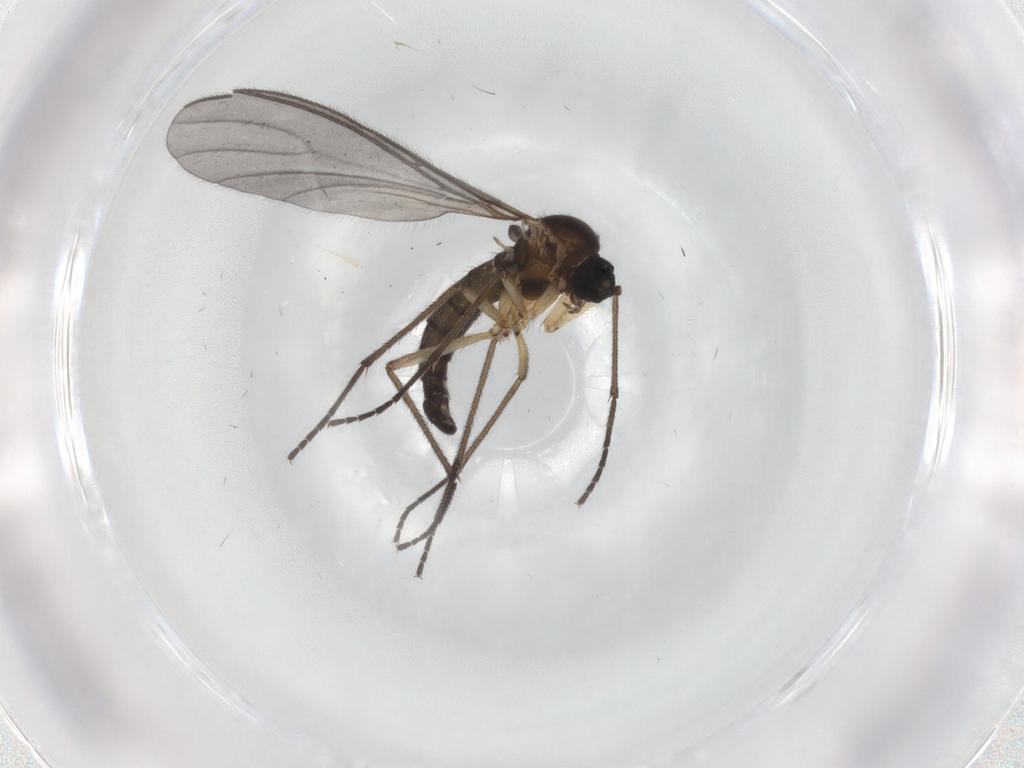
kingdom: Animalia
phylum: Arthropoda
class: Insecta
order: Diptera
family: Sciaridae
